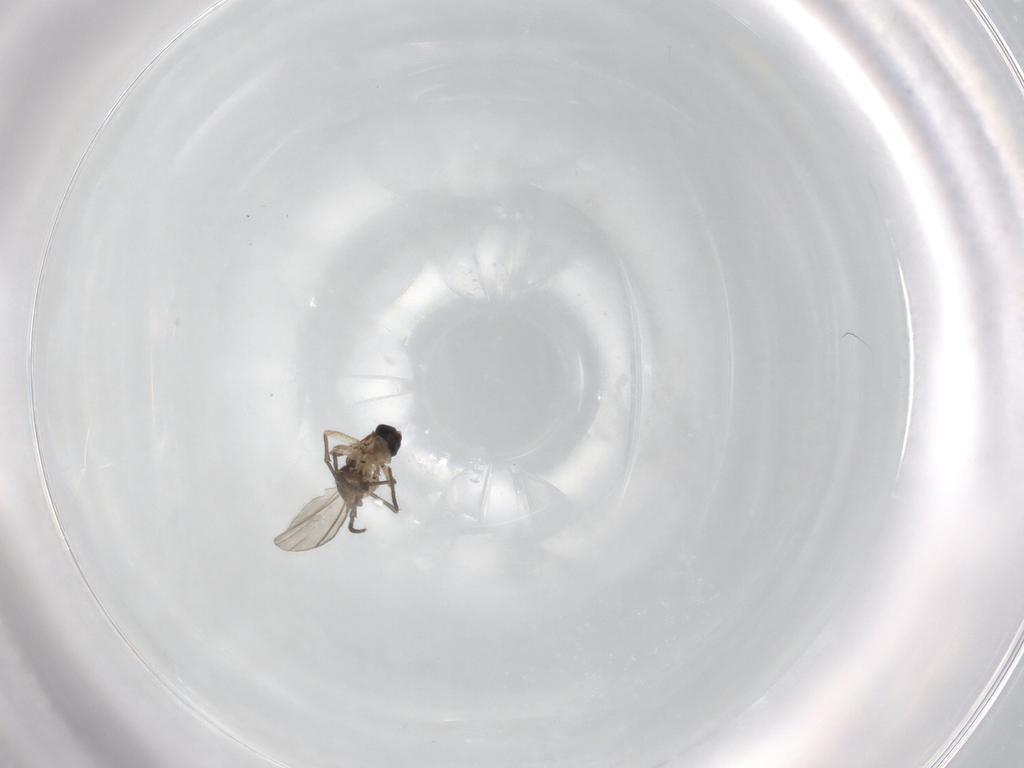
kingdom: Animalia
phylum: Arthropoda
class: Insecta
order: Diptera
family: Sciaridae
